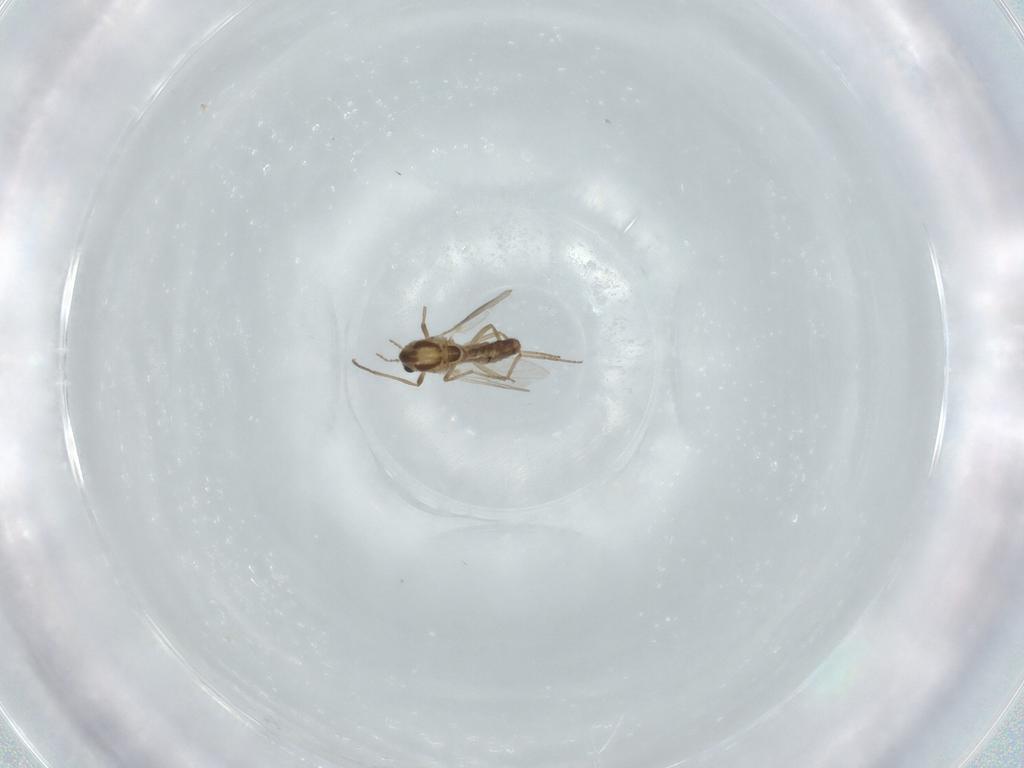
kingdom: Animalia
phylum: Arthropoda
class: Insecta
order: Diptera
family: Chironomidae
